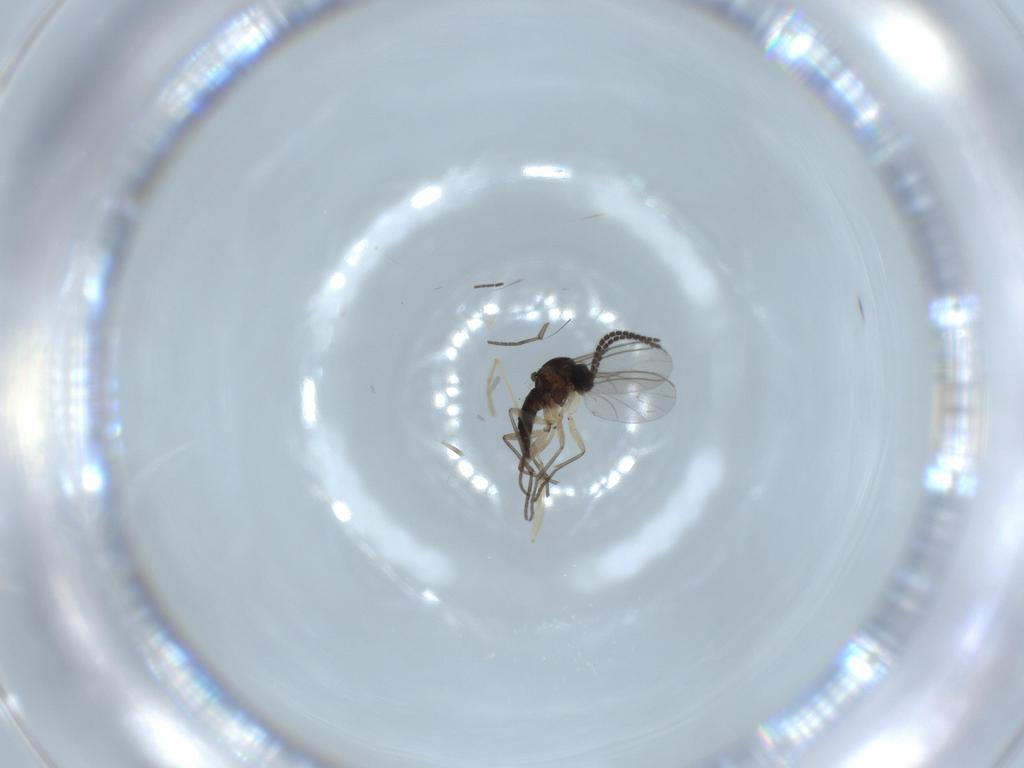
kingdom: Animalia
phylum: Arthropoda
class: Insecta
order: Diptera
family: Sciaridae
